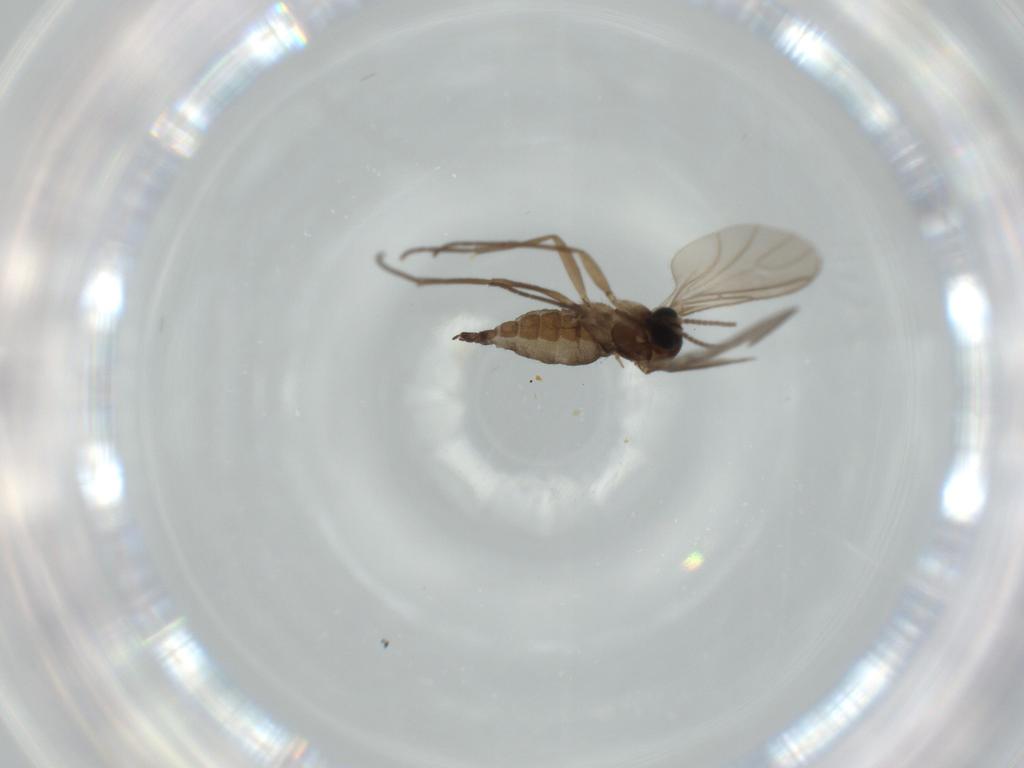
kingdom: Animalia
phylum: Arthropoda
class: Insecta
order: Diptera
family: Sciaridae
